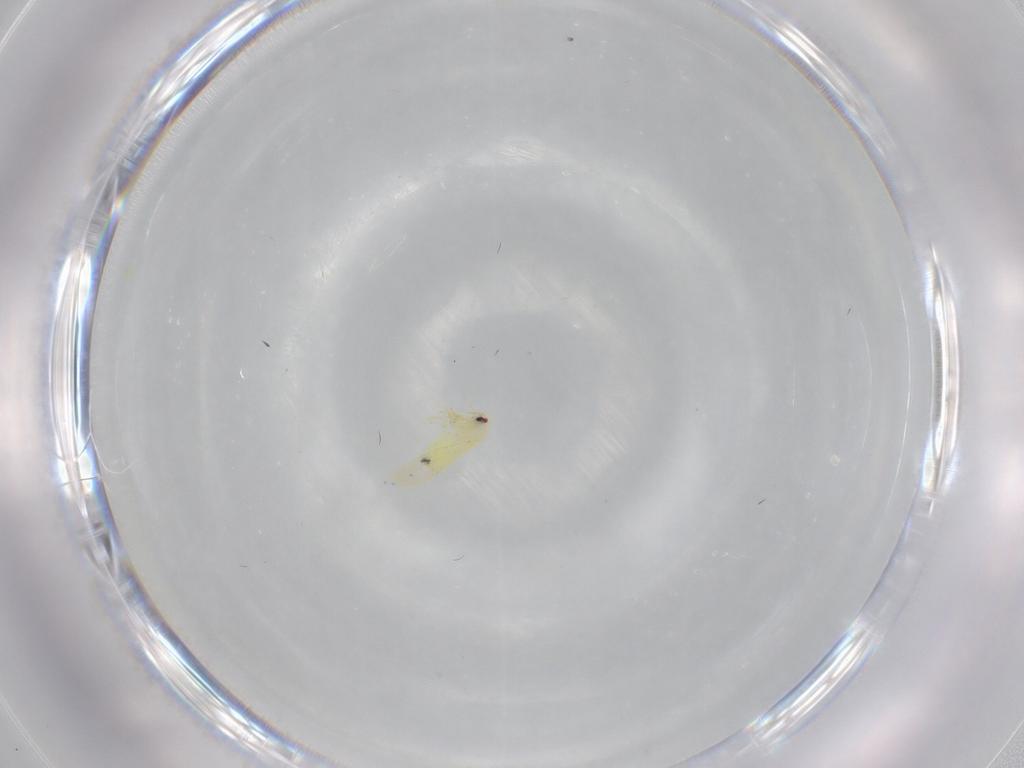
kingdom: Animalia
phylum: Arthropoda
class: Insecta
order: Hemiptera
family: Aleyrodidae
